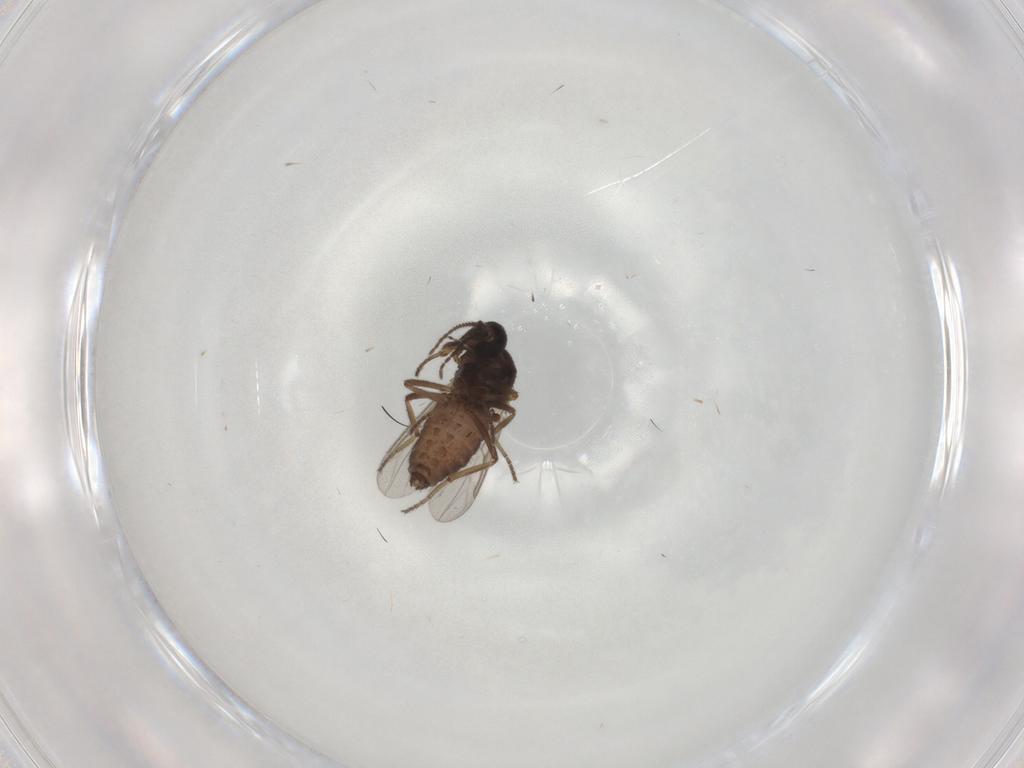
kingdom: Animalia
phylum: Arthropoda
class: Insecta
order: Diptera
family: Ceratopogonidae
